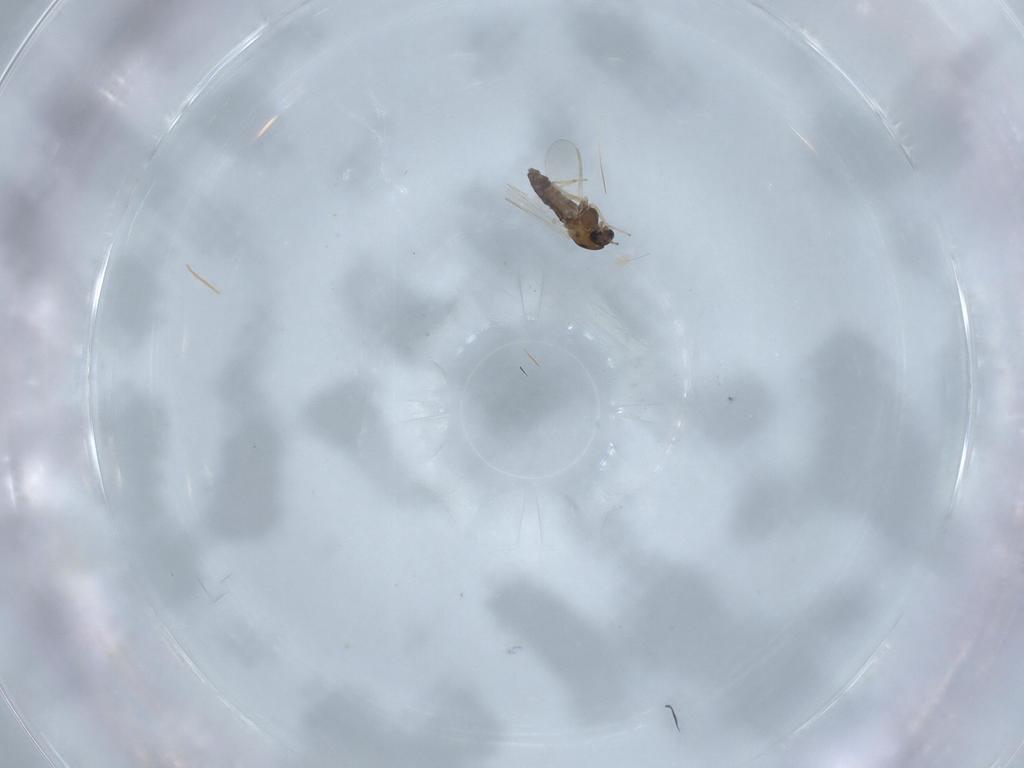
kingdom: Animalia
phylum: Arthropoda
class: Insecta
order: Diptera
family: Chironomidae
